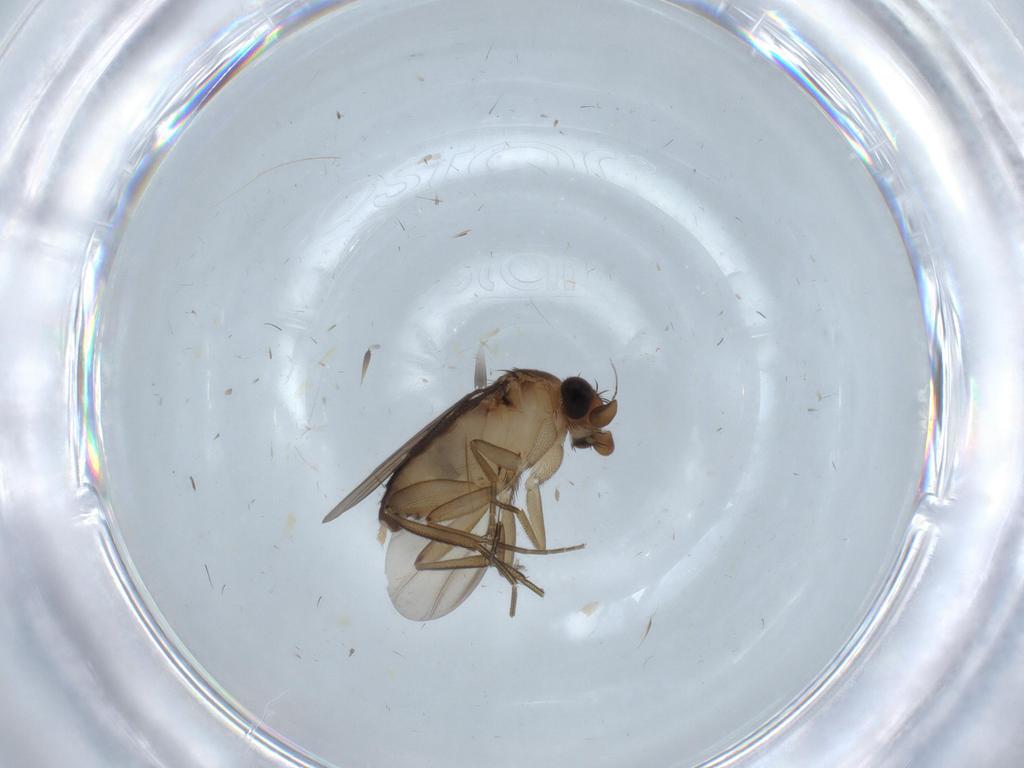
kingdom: Animalia
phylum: Arthropoda
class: Insecta
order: Diptera
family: Phoridae
